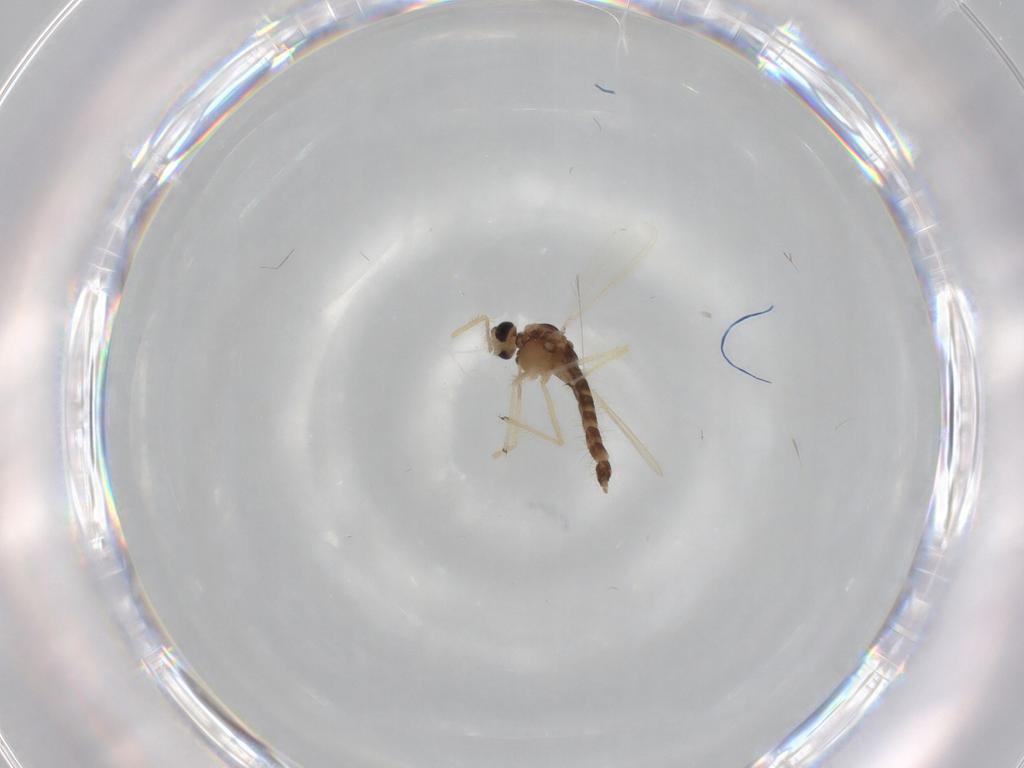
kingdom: Animalia
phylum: Arthropoda
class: Insecta
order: Diptera
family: Chironomidae
